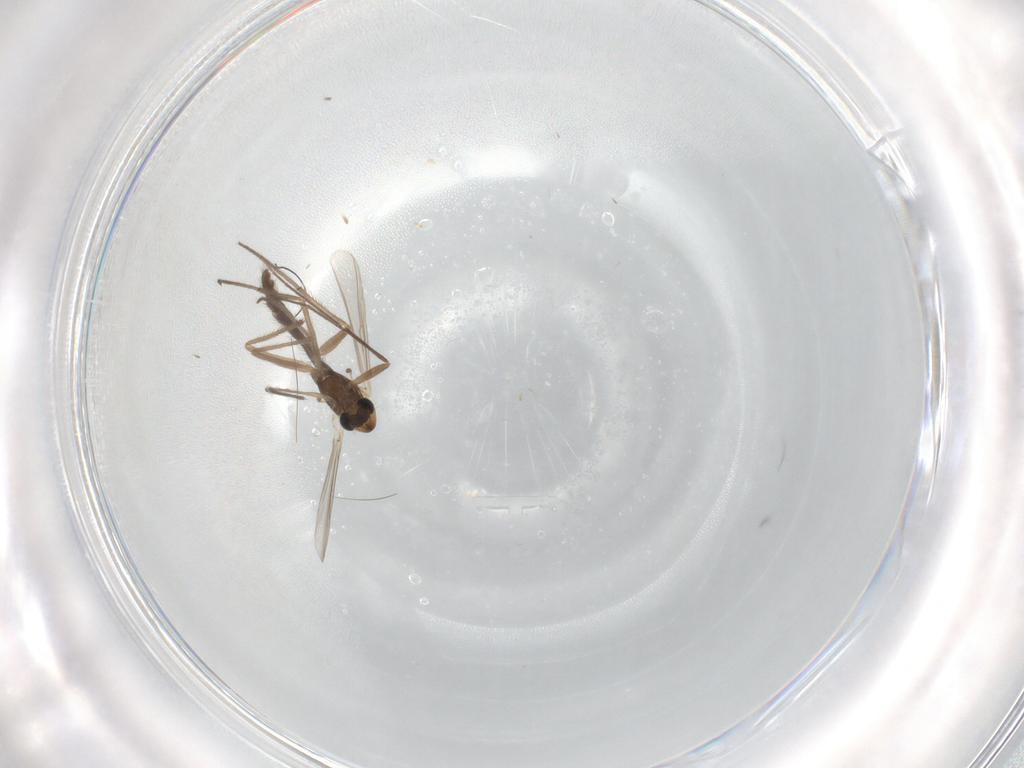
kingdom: Animalia
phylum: Arthropoda
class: Insecta
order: Diptera
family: Chironomidae
